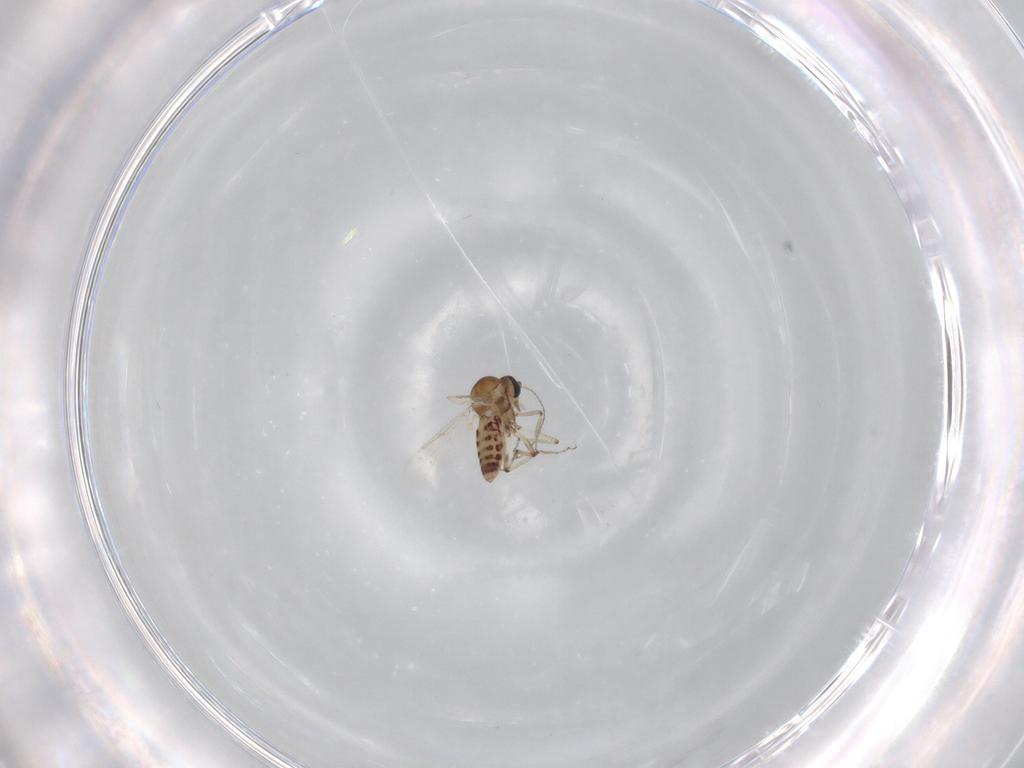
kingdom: Animalia
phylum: Arthropoda
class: Insecta
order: Diptera
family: Ceratopogonidae
